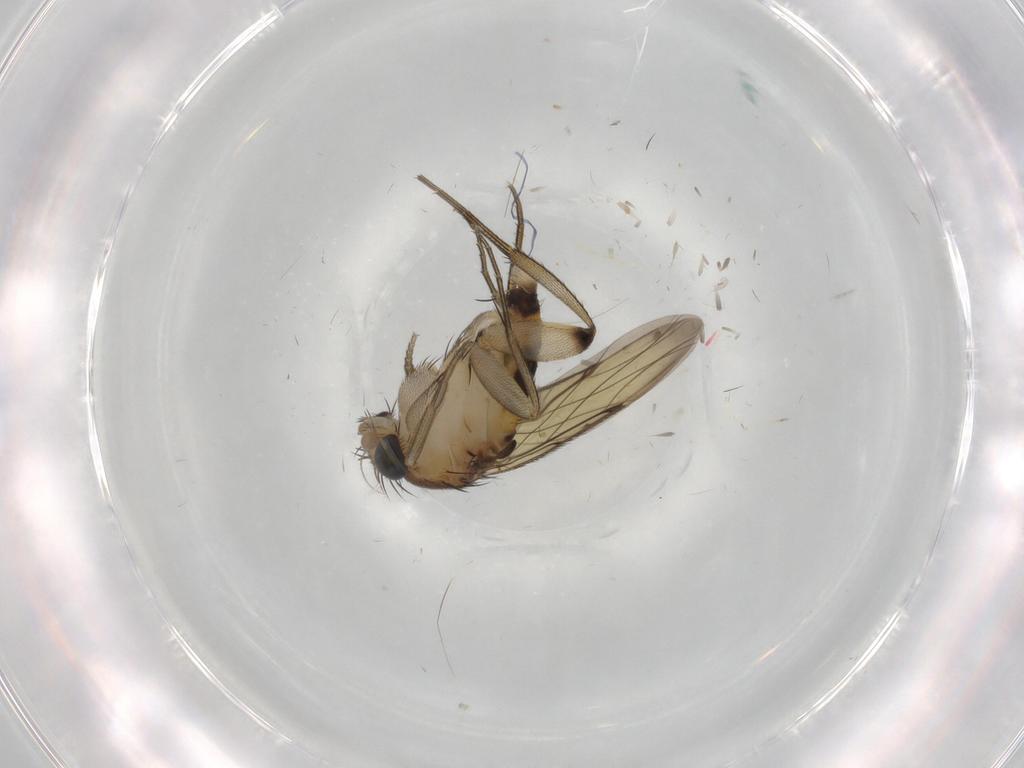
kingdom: Animalia
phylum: Arthropoda
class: Insecta
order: Diptera
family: Phoridae
